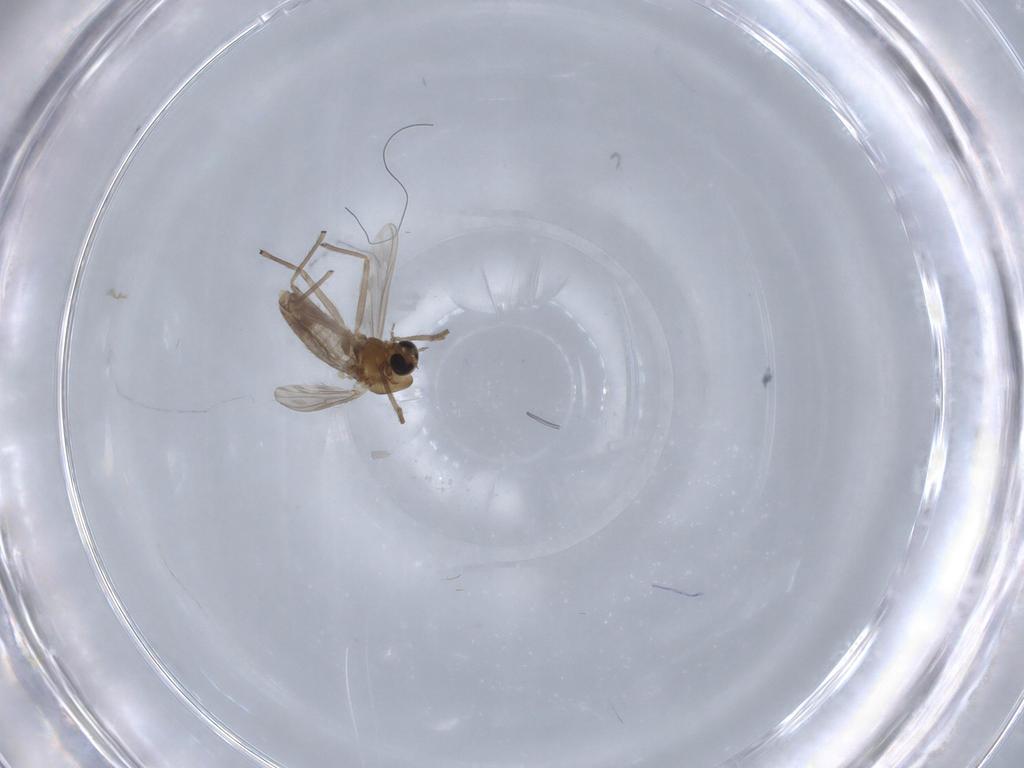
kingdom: Animalia
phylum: Arthropoda
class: Insecta
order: Diptera
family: Chironomidae
